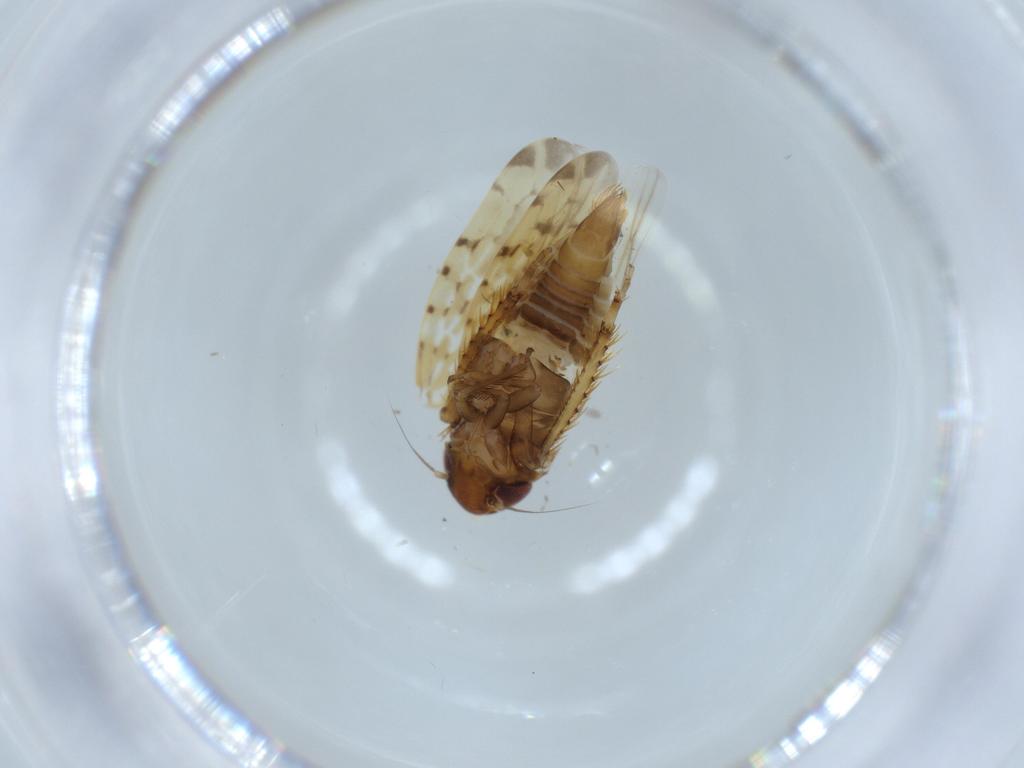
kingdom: Animalia
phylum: Arthropoda
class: Insecta
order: Hemiptera
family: Cicadellidae
